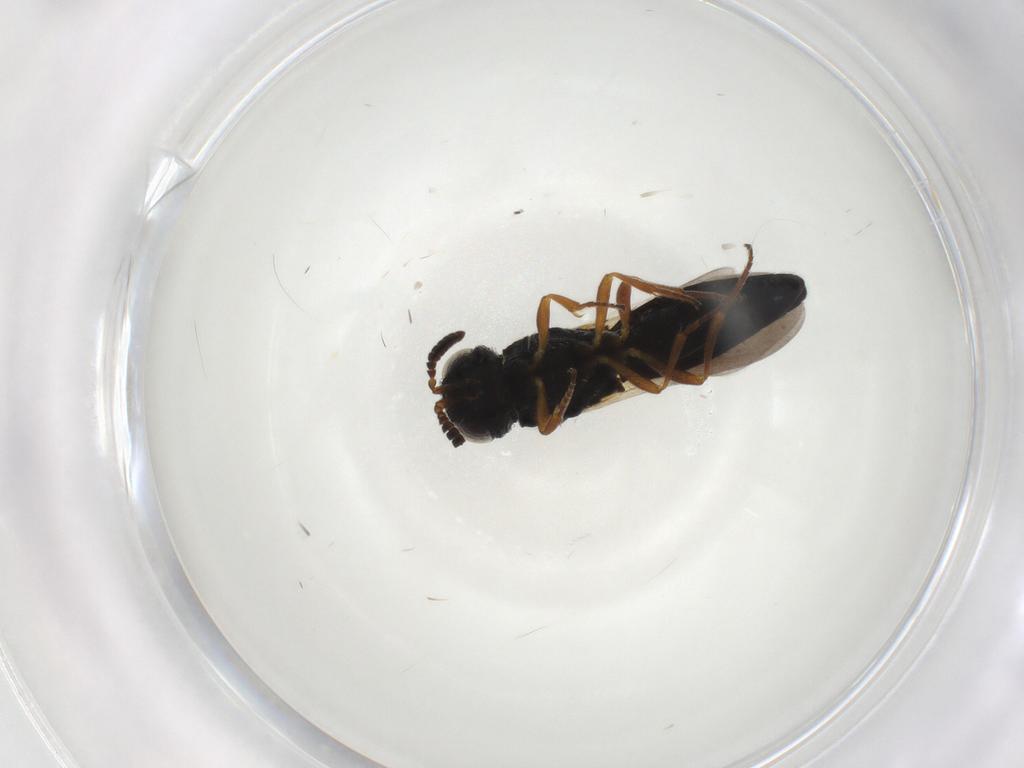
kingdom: Animalia
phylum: Arthropoda
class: Insecta
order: Hymenoptera
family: Scelionidae
